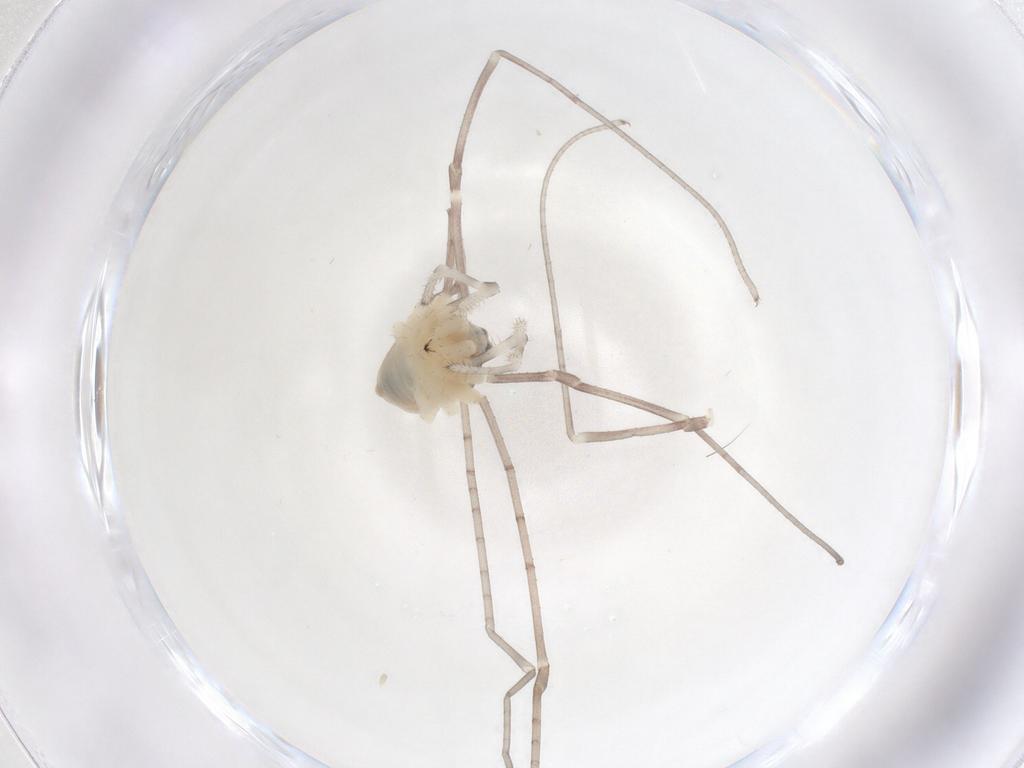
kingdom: Animalia
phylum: Arthropoda
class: Arachnida
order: Opiliones
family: Sclerosomatidae
